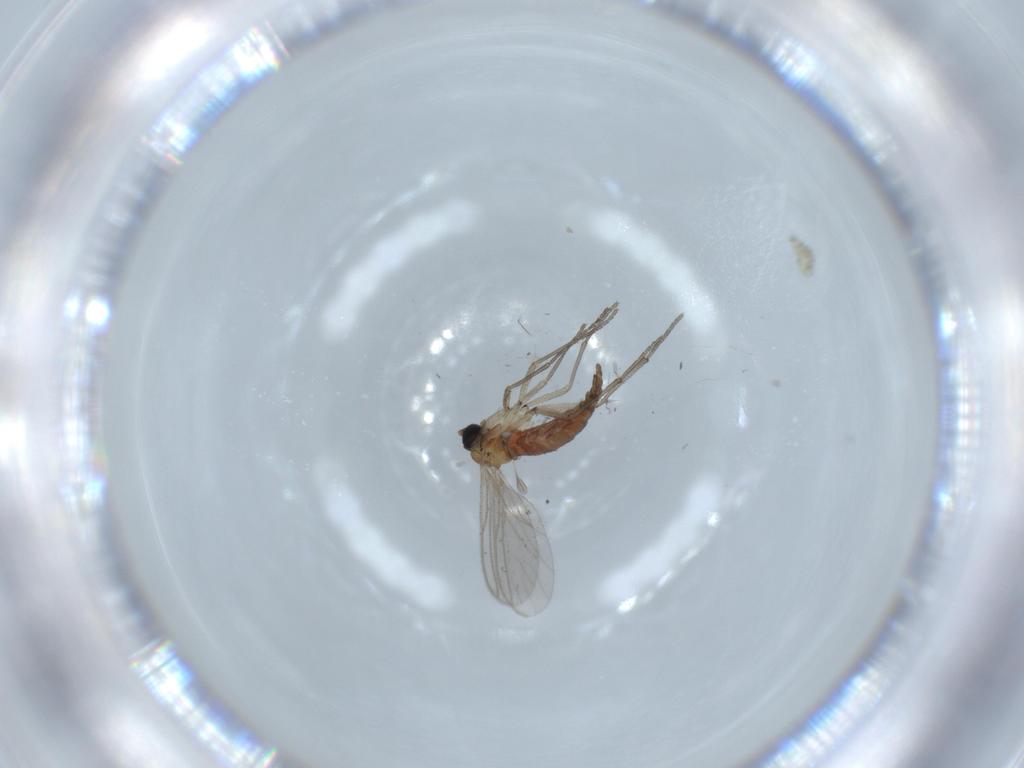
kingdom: Animalia
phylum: Arthropoda
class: Insecta
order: Diptera
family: Sciaridae
